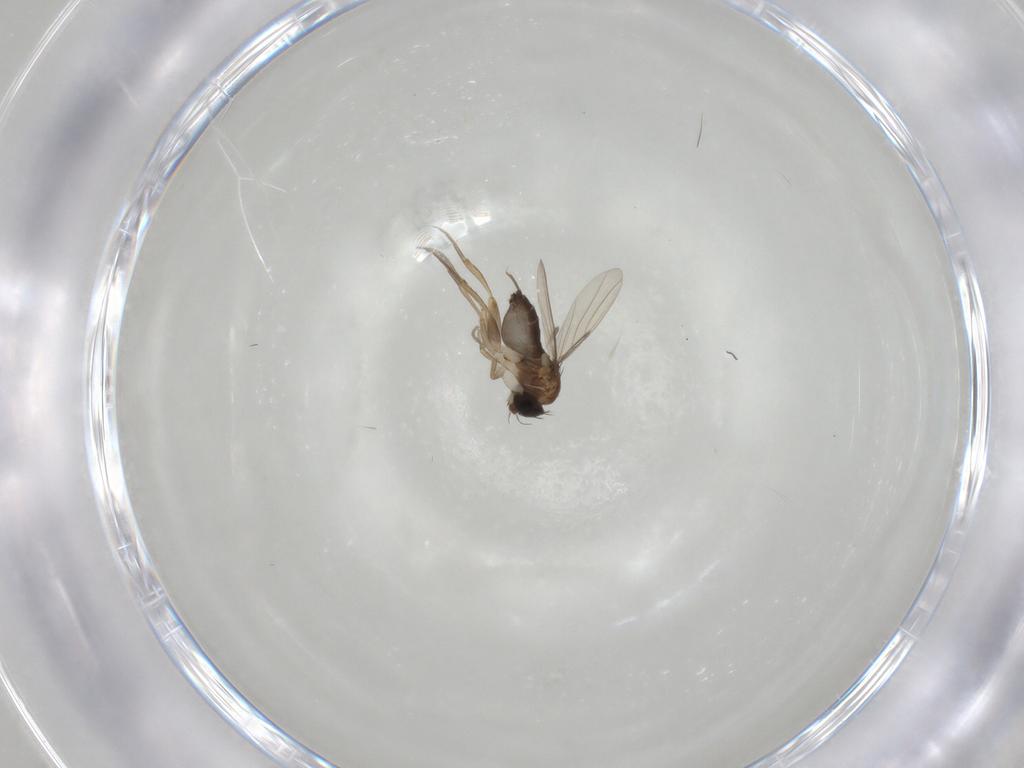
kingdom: Animalia
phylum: Arthropoda
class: Insecta
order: Diptera
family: Phoridae
